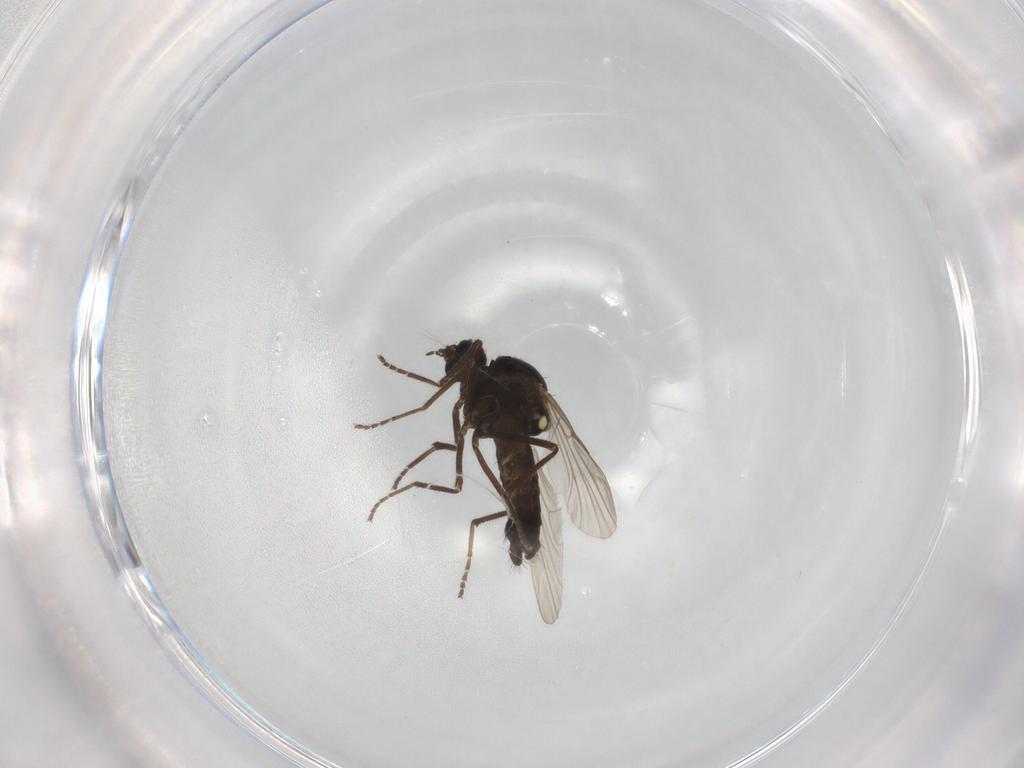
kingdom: Animalia
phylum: Arthropoda
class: Insecta
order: Diptera
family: Ceratopogonidae
